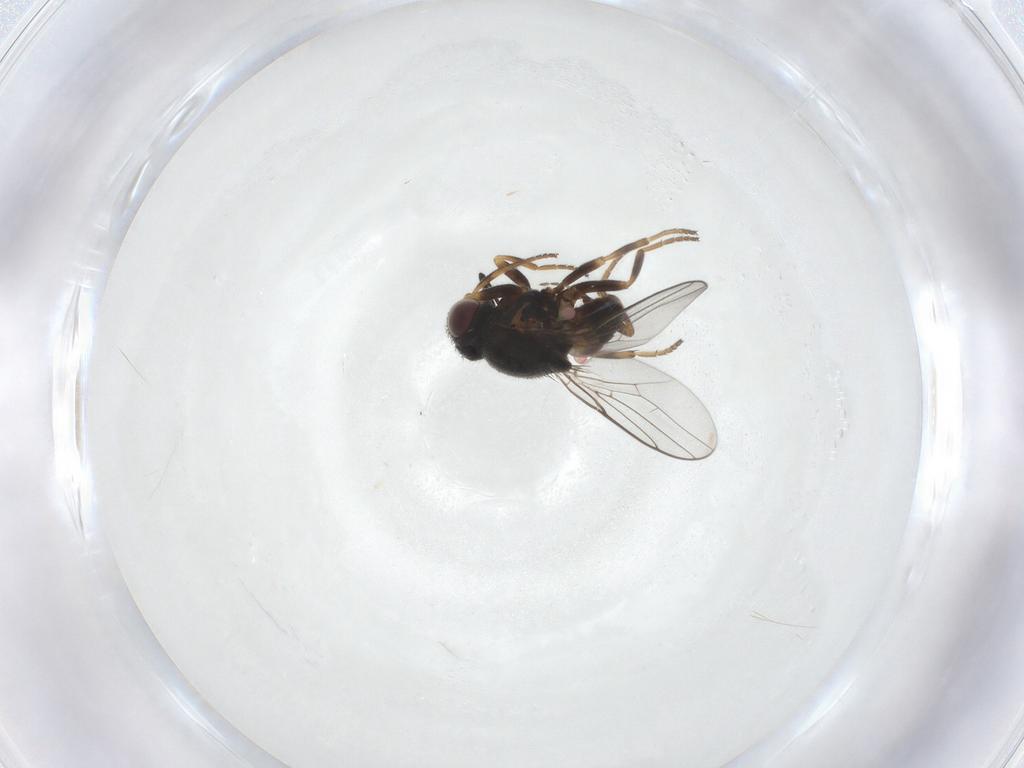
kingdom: Animalia
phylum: Arthropoda
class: Insecta
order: Diptera
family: Chloropidae
